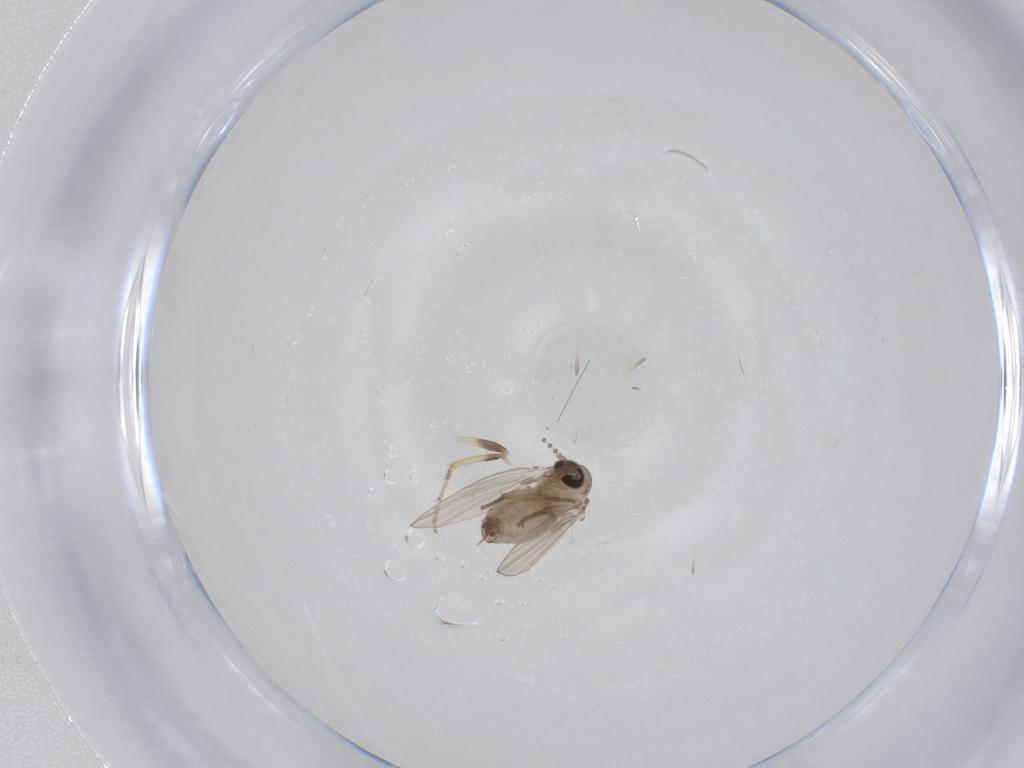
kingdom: Animalia
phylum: Arthropoda
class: Insecta
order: Diptera
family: Psychodidae
